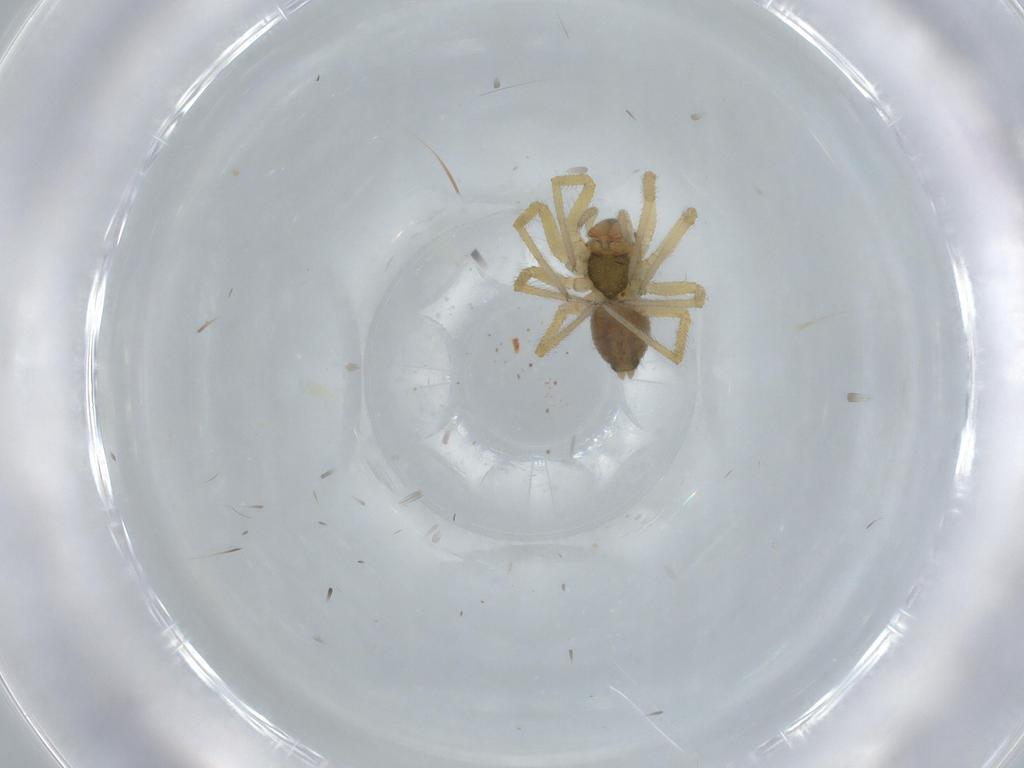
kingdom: Animalia
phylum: Arthropoda
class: Arachnida
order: Araneae
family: Linyphiidae
